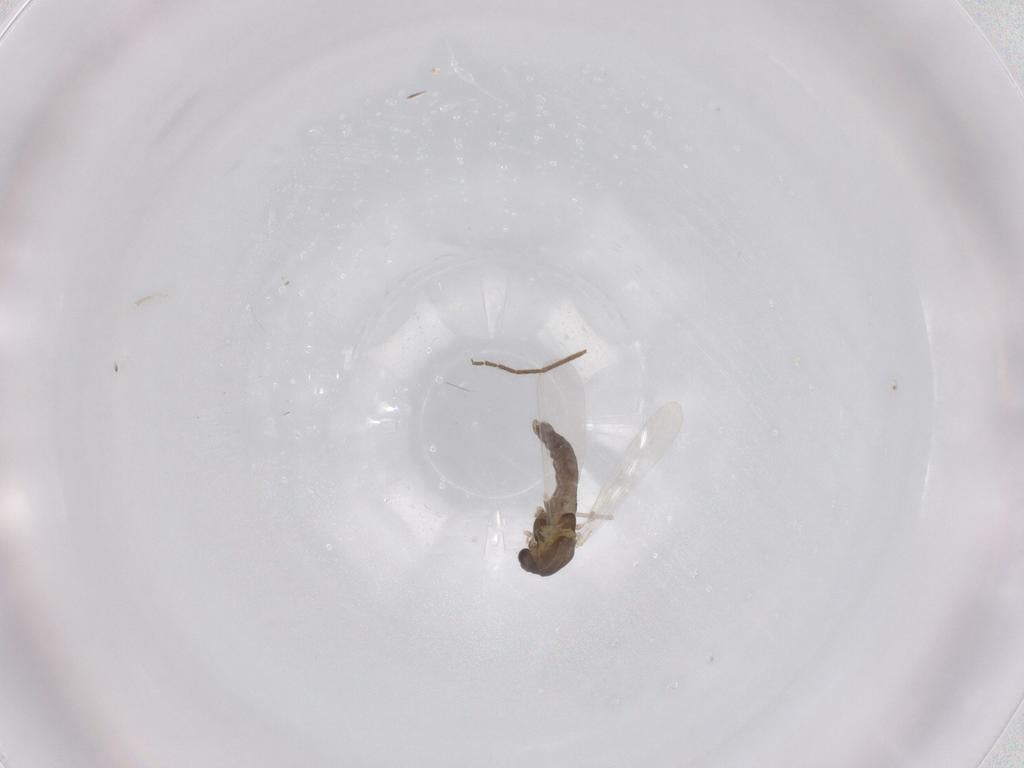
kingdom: Animalia
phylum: Arthropoda
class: Insecta
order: Diptera
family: Chironomidae
